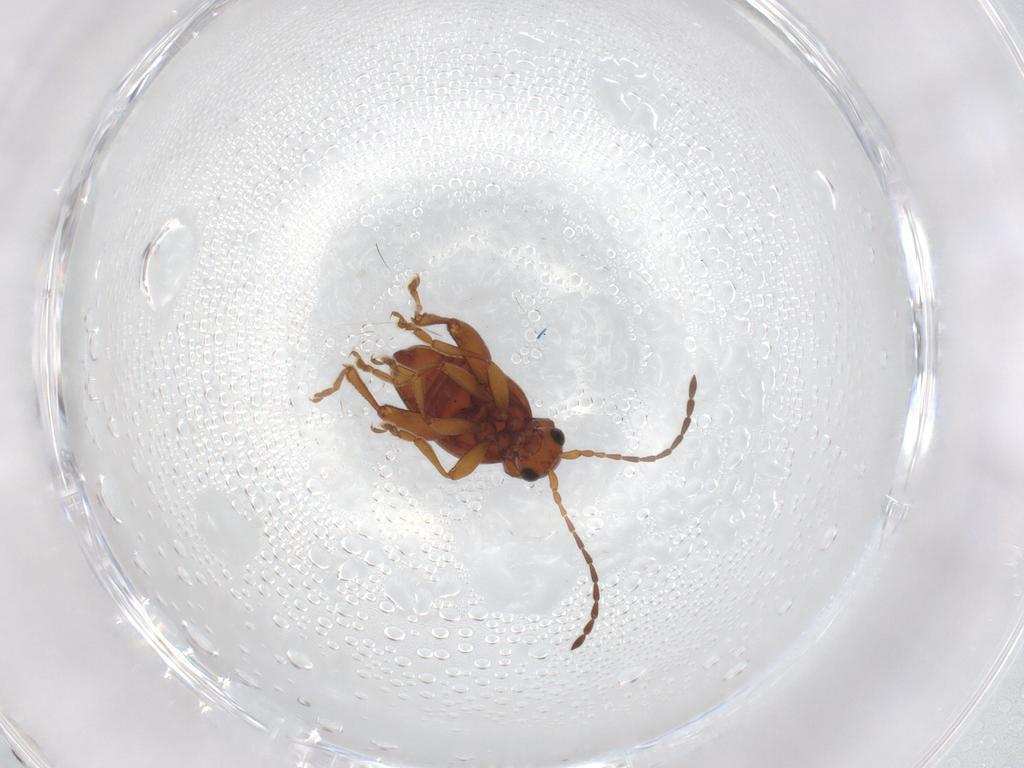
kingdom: Animalia
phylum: Arthropoda
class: Insecta
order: Coleoptera
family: Chrysomelidae
